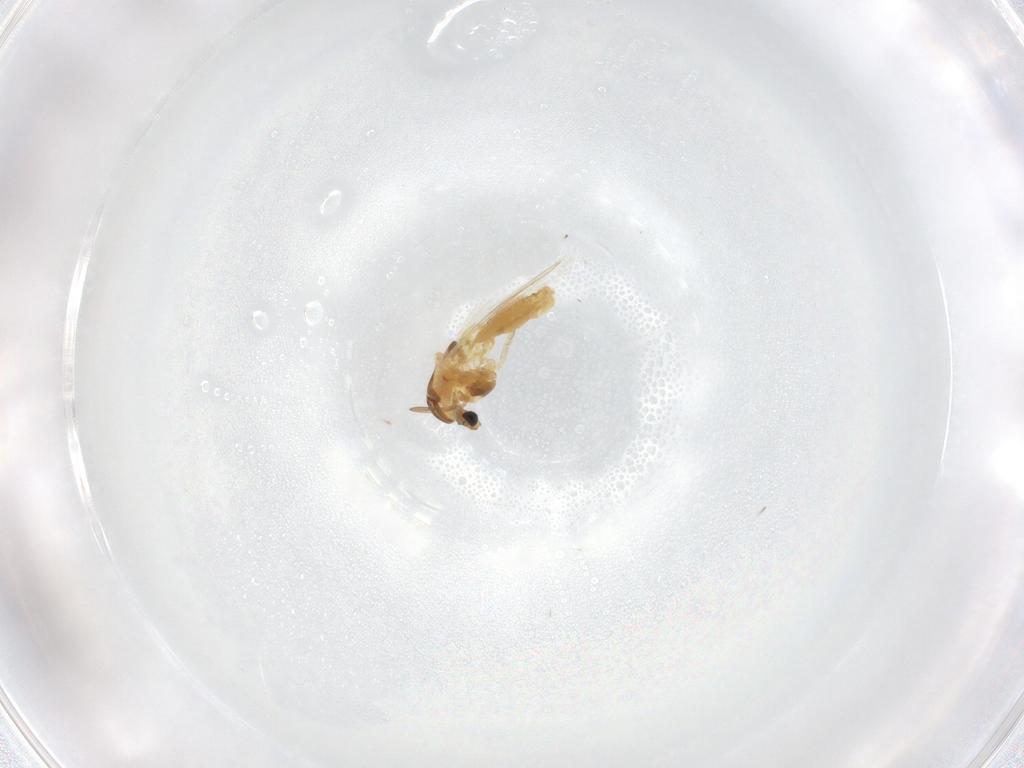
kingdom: Animalia
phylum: Arthropoda
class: Insecta
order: Diptera
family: Chironomidae
